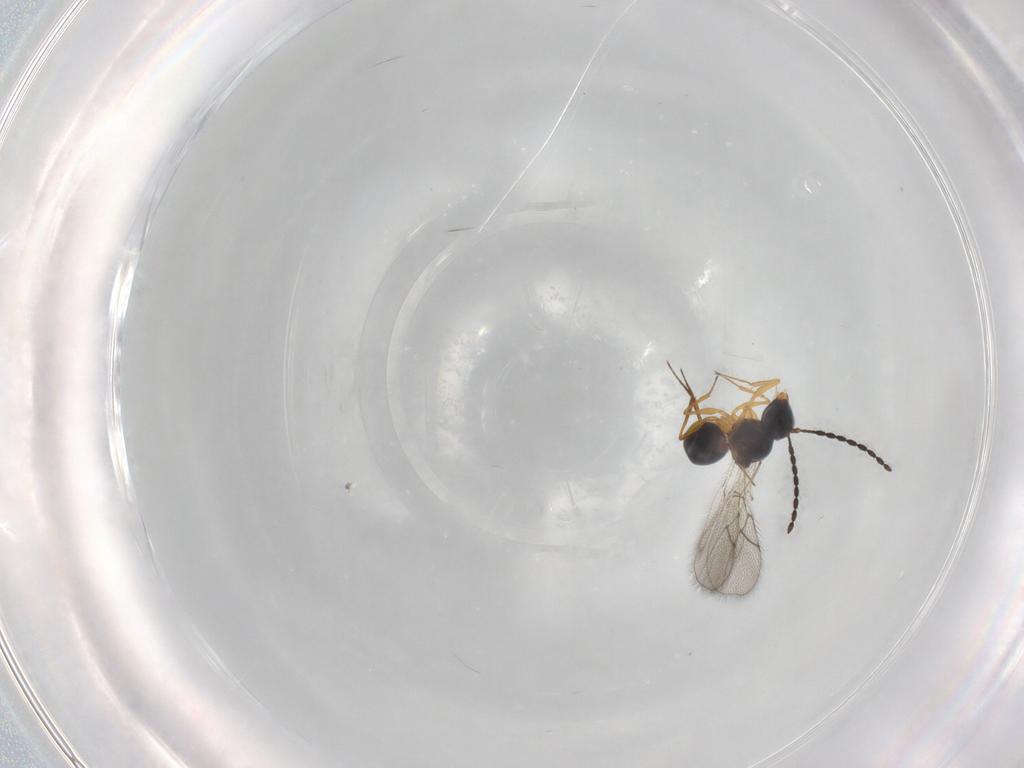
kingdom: Animalia
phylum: Arthropoda
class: Insecta
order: Hymenoptera
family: Figitidae
